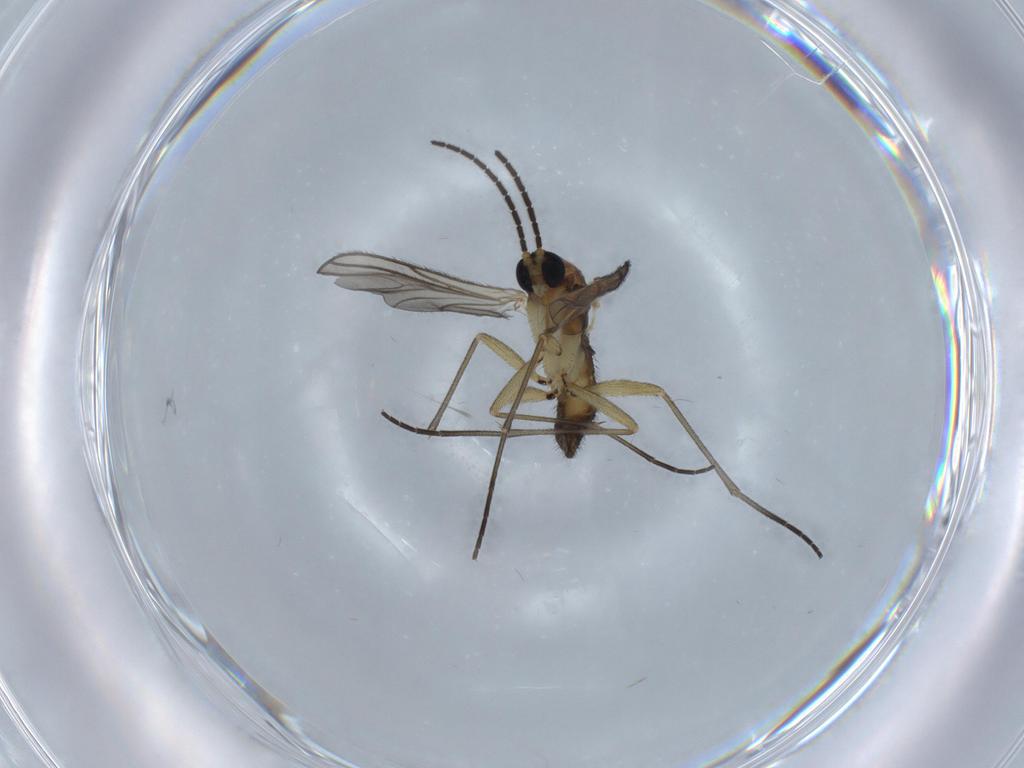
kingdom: Animalia
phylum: Arthropoda
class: Insecta
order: Diptera
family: Sciaridae
